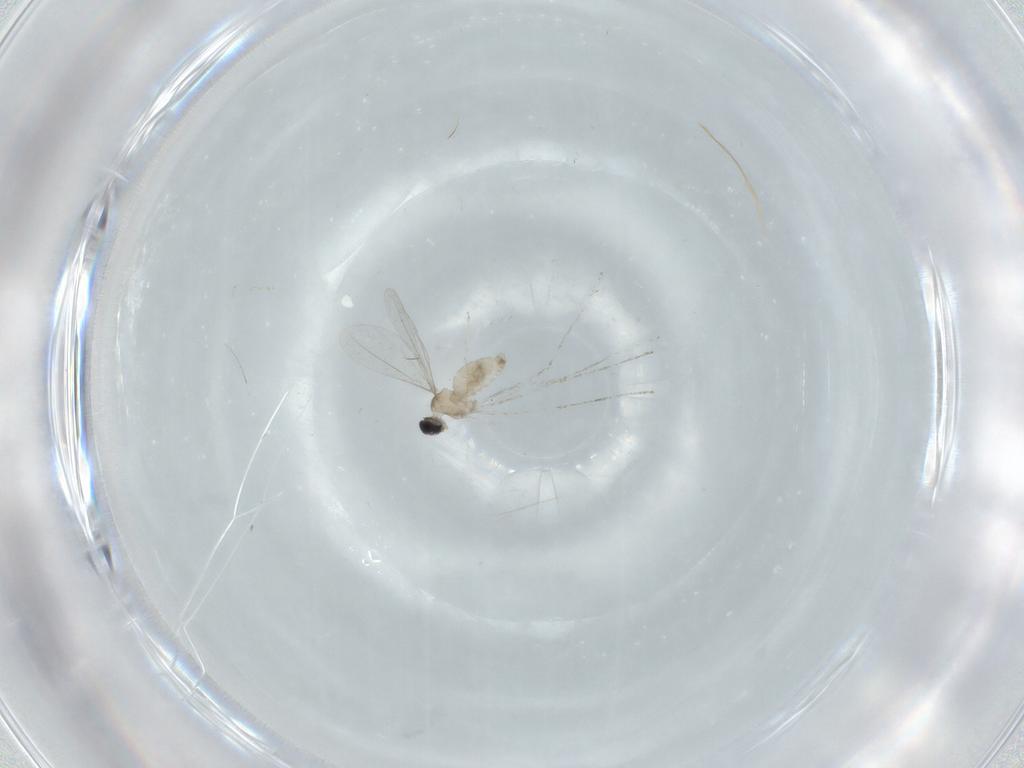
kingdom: Animalia
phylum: Arthropoda
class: Insecta
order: Diptera
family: Cecidomyiidae
